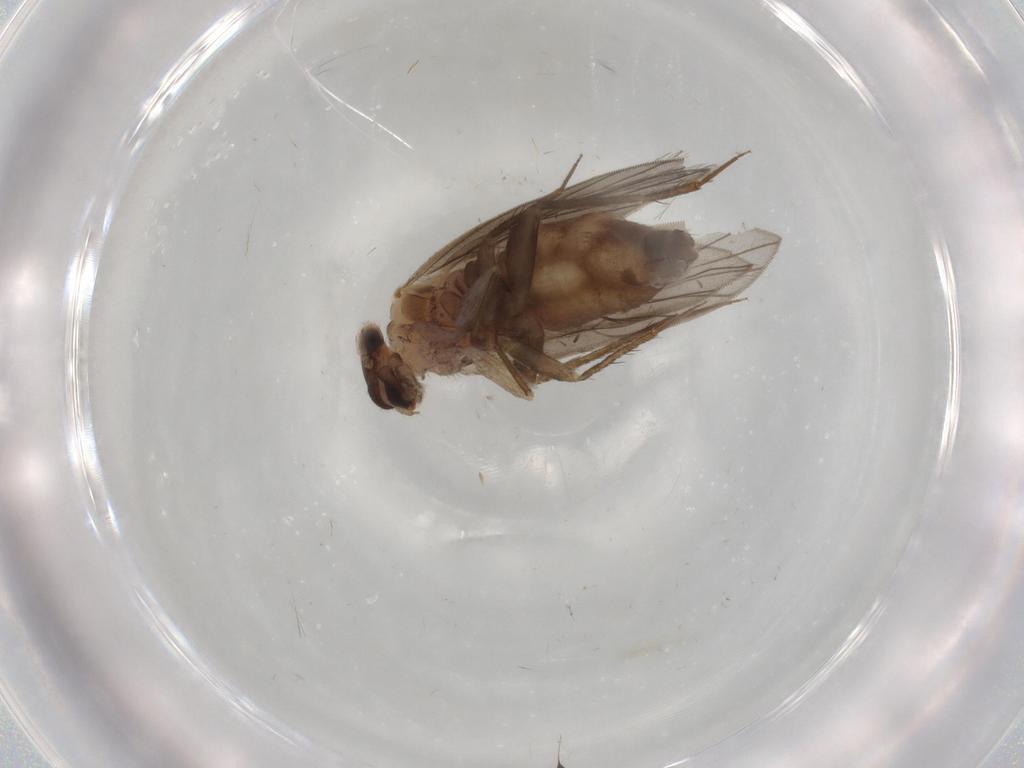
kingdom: Animalia
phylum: Arthropoda
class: Insecta
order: Psocodea
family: Lepidopsocidae
